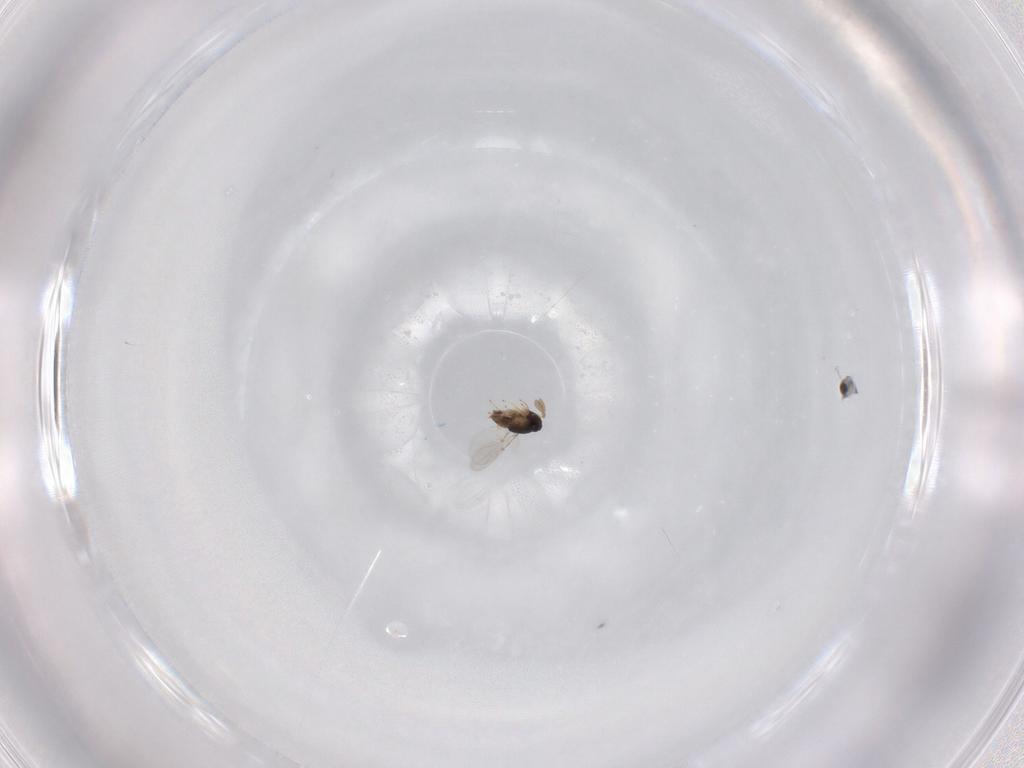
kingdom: Animalia
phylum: Arthropoda
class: Insecta
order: Hymenoptera
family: Encyrtidae
